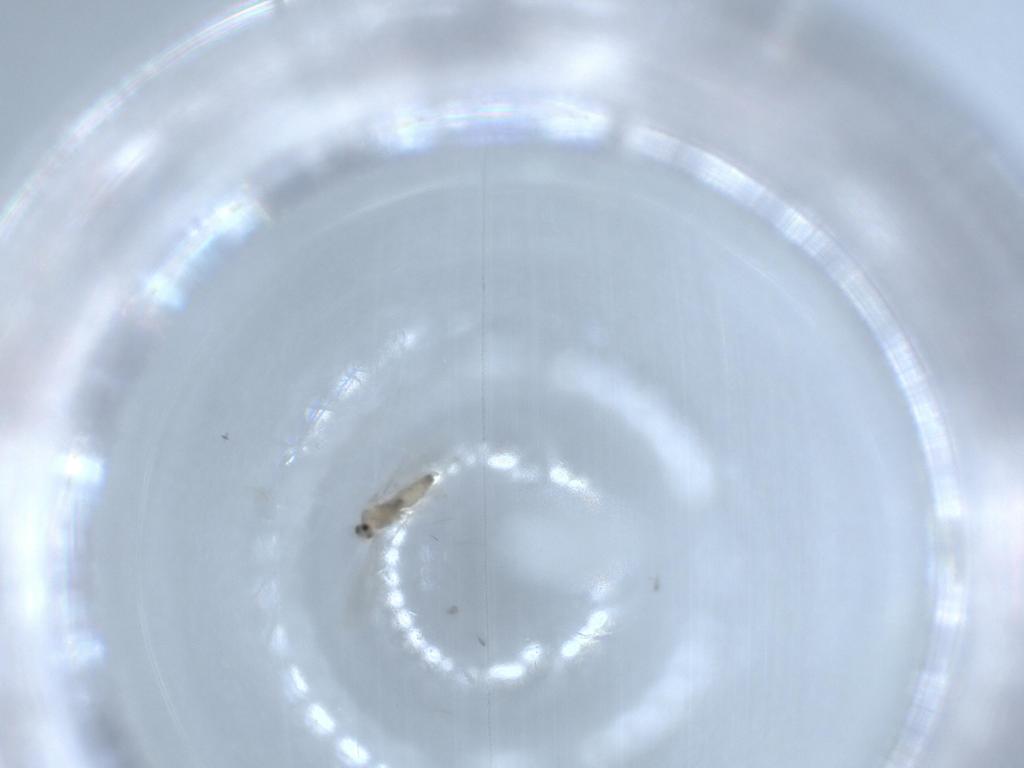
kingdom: Animalia
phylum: Arthropoda
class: Insecta
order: Diptera
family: Cecidomyiidae
